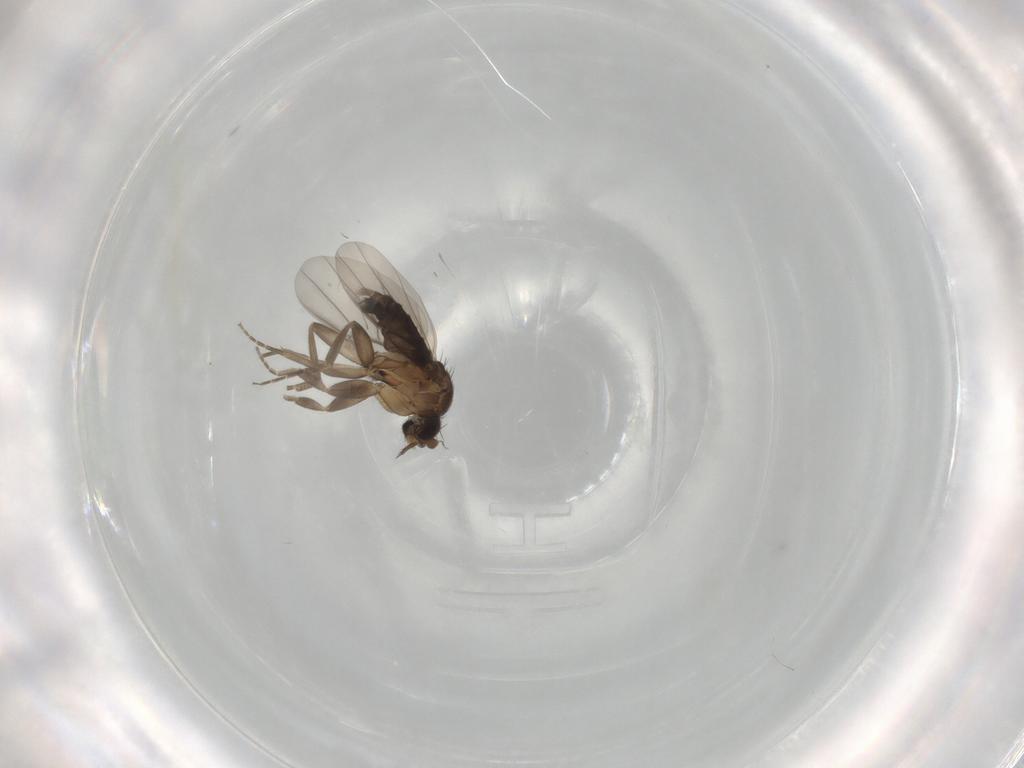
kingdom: Animalia
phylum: Arthropoda
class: Insecta
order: Diptera
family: Phoridae
